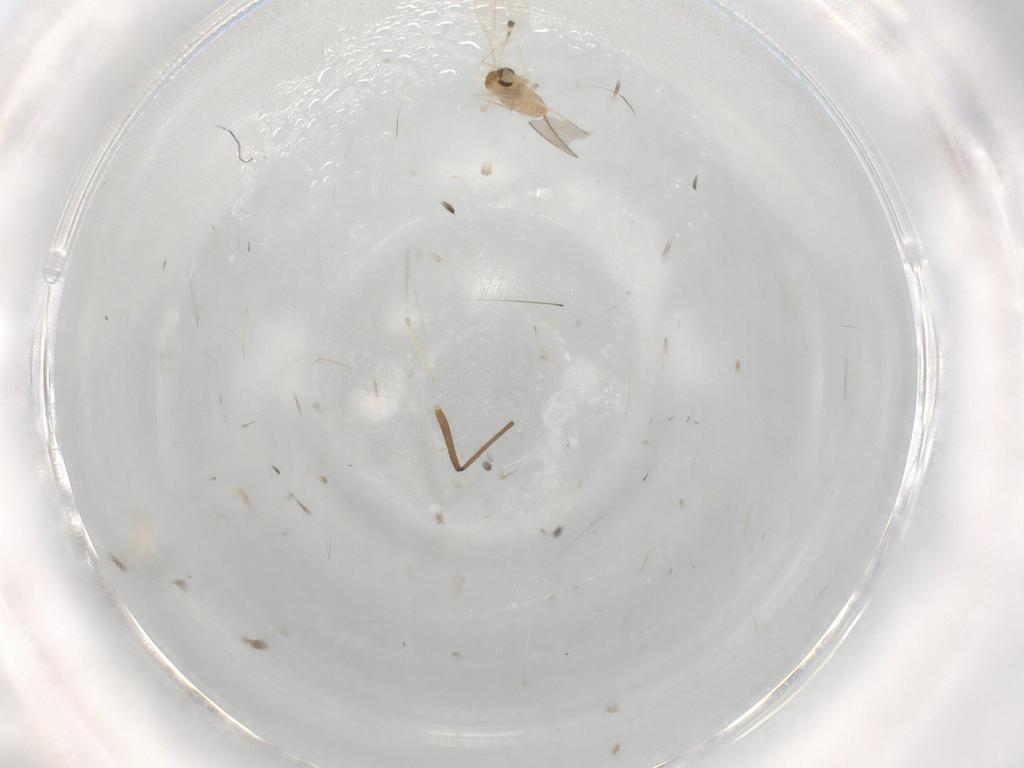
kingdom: Animalia
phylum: Arthropoda
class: Insecta
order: Diptera
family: Cecidomyiidae
